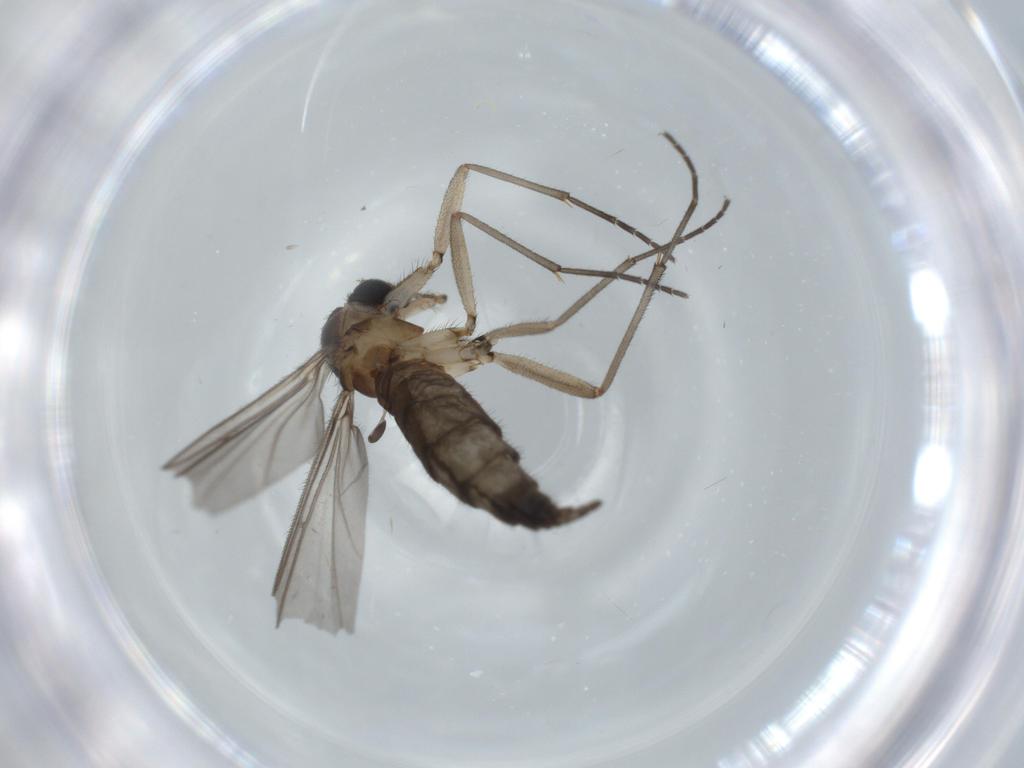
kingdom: Animalia
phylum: Arthropoda
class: Insecta
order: Diptera
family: Sciaridae
